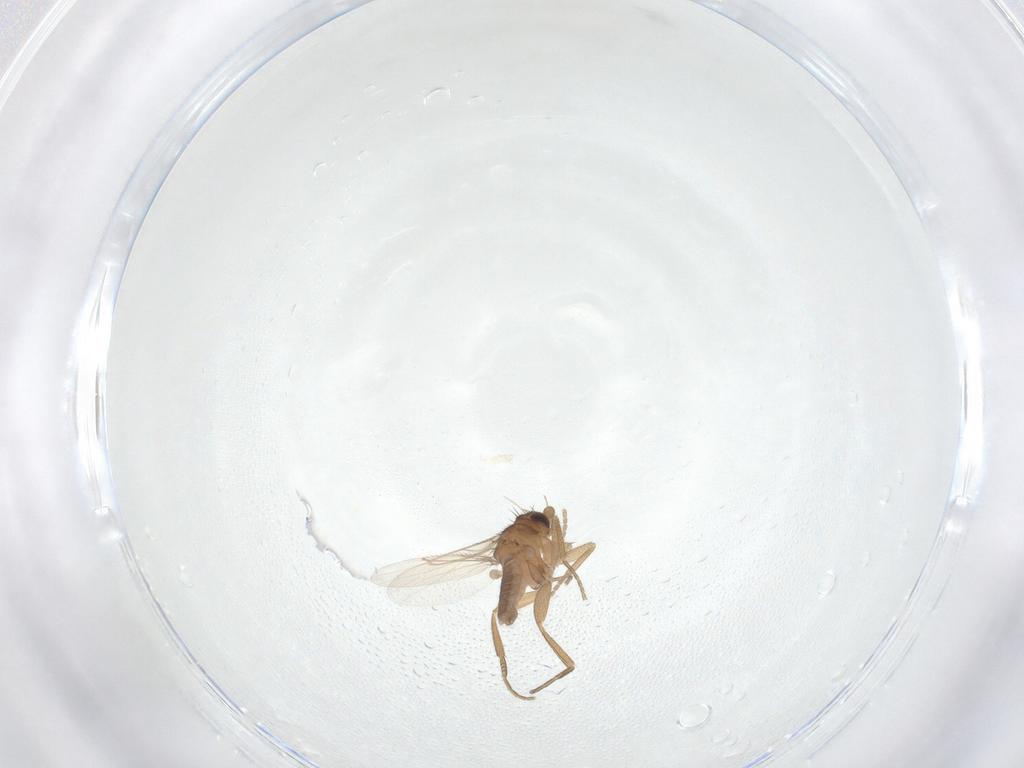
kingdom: Animalia
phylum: Arthropoda
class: Insecta
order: Diptera
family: Phoridae
